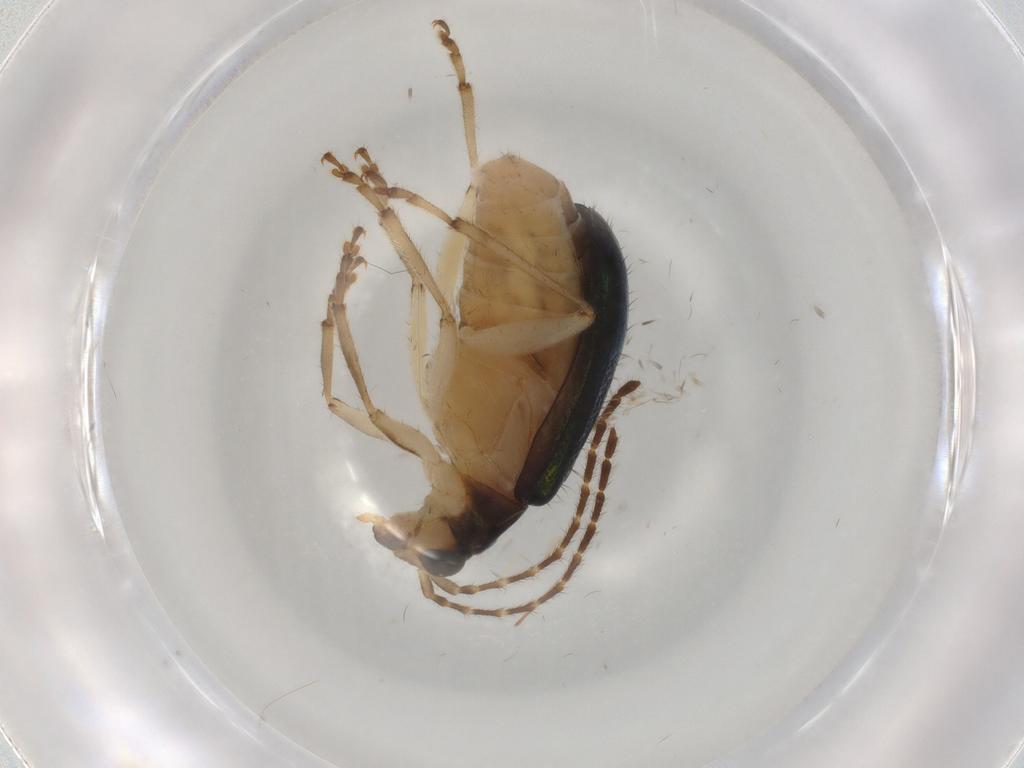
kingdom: Animalia
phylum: Arthropoda
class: Insecta
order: Coleoptera
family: Chrysomelidae
